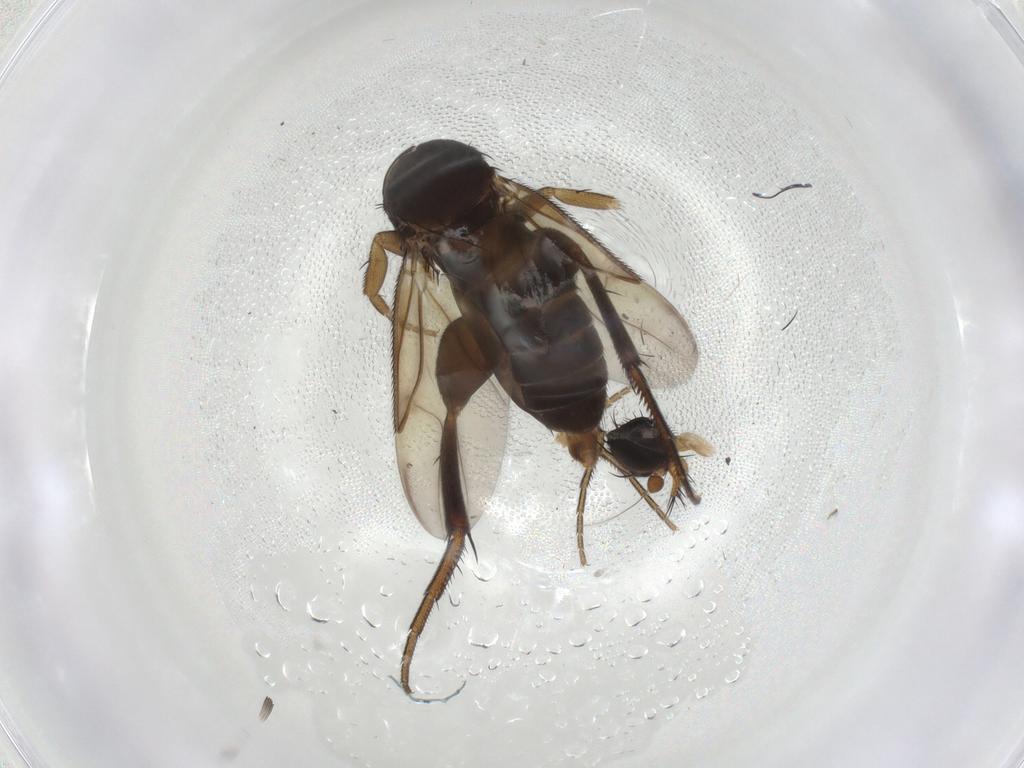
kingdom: Animalia
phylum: Arthropoda
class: Insecta
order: Diptera
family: Phoridae
